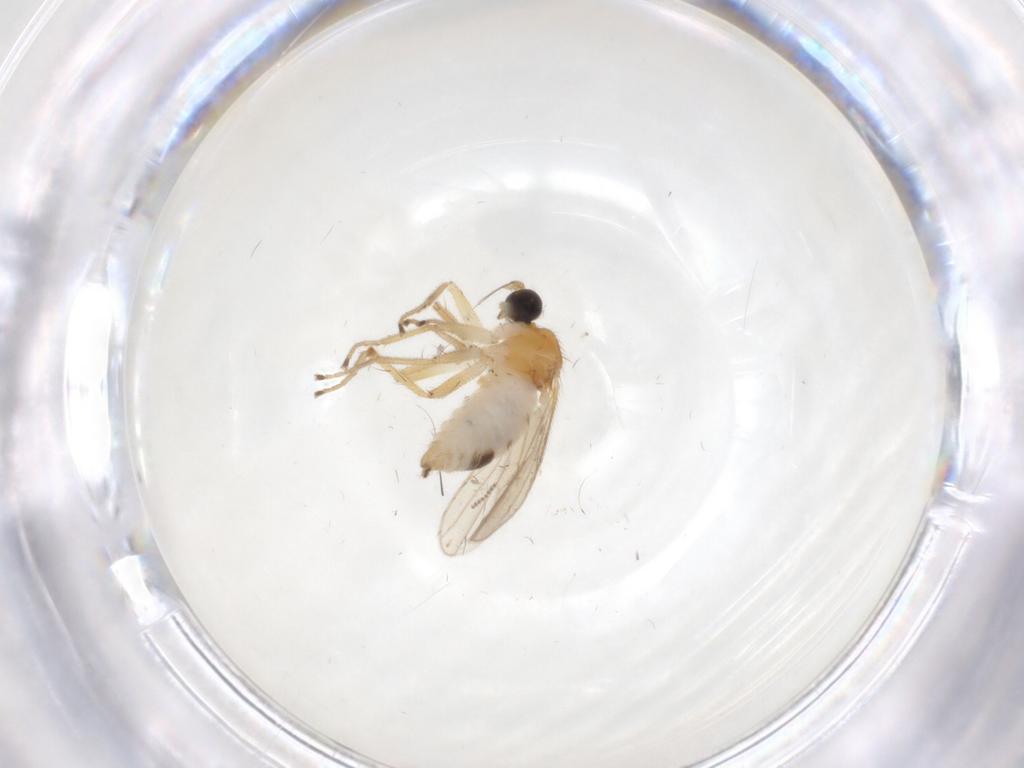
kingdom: Animalia
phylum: Arthropoda
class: Insecta
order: Diptera
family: Hybotidae
